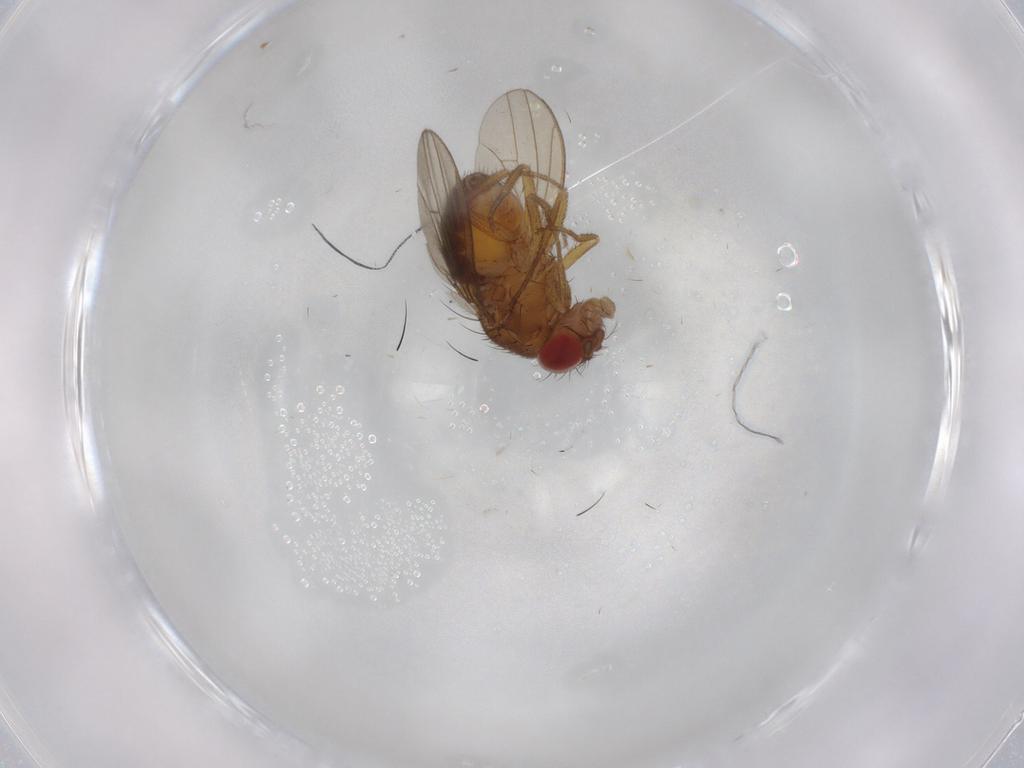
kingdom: Animalia
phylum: Arthropoda
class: Insecta
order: Diptera
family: Drosophilidae
